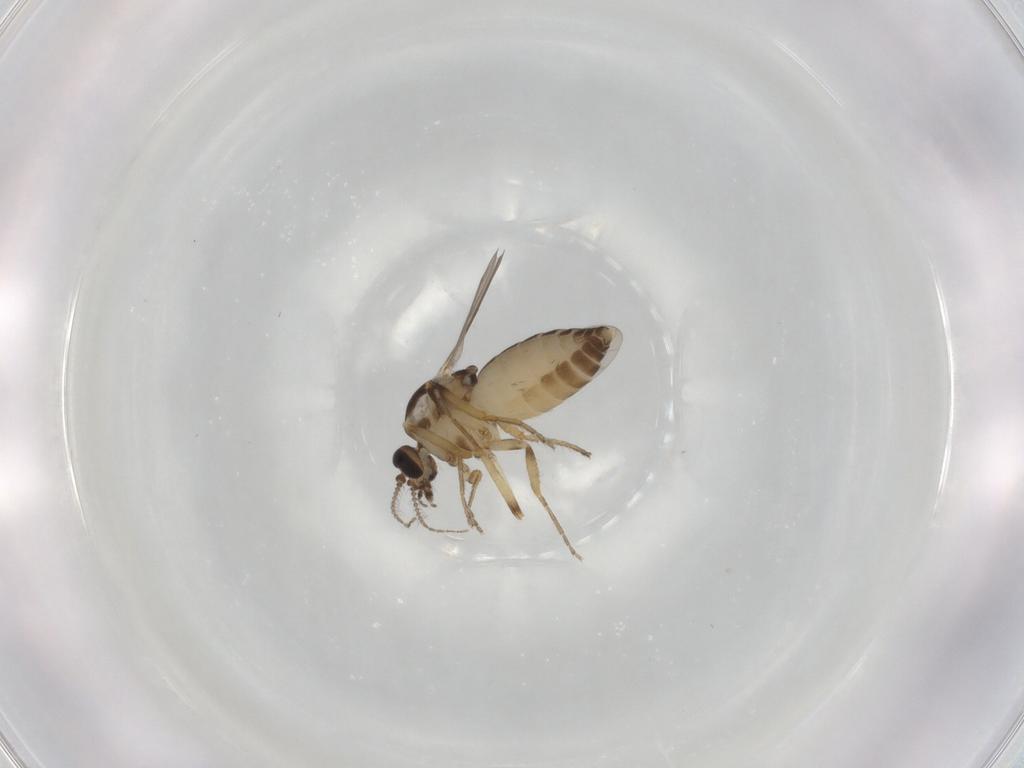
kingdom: Animalia
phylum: Arthropoda
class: Insecta
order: Diptera
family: Ceratopogonidae
